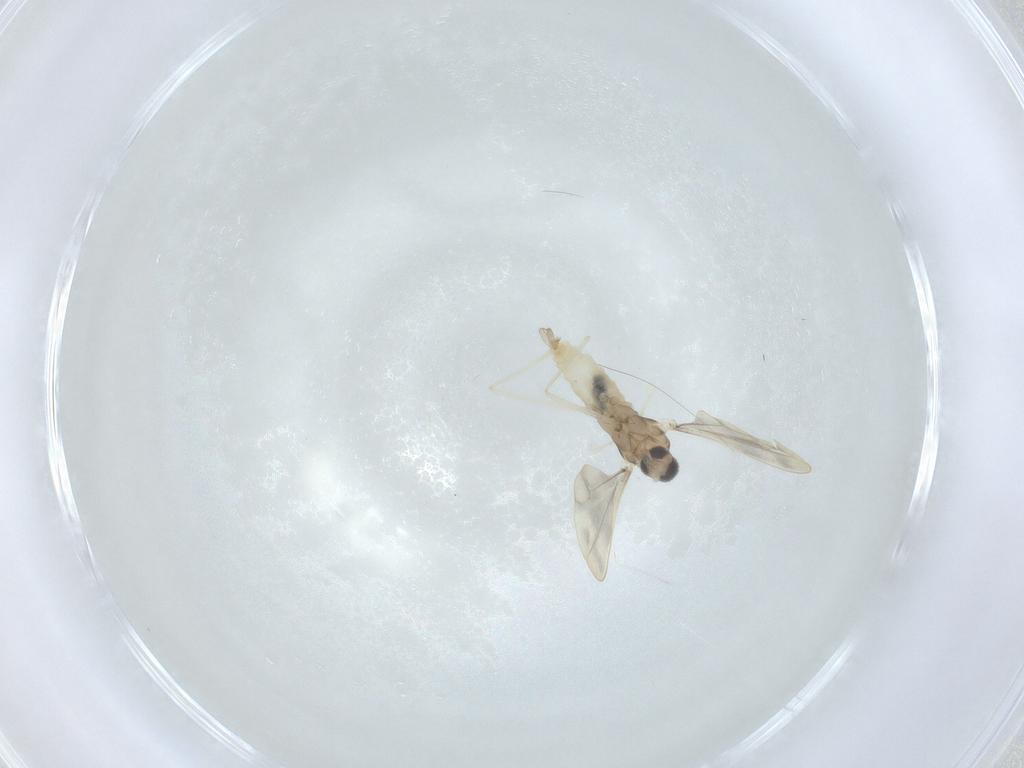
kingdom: Animalia
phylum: Arthropoda
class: Insecta
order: Diptera
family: Cecidomyiidae
